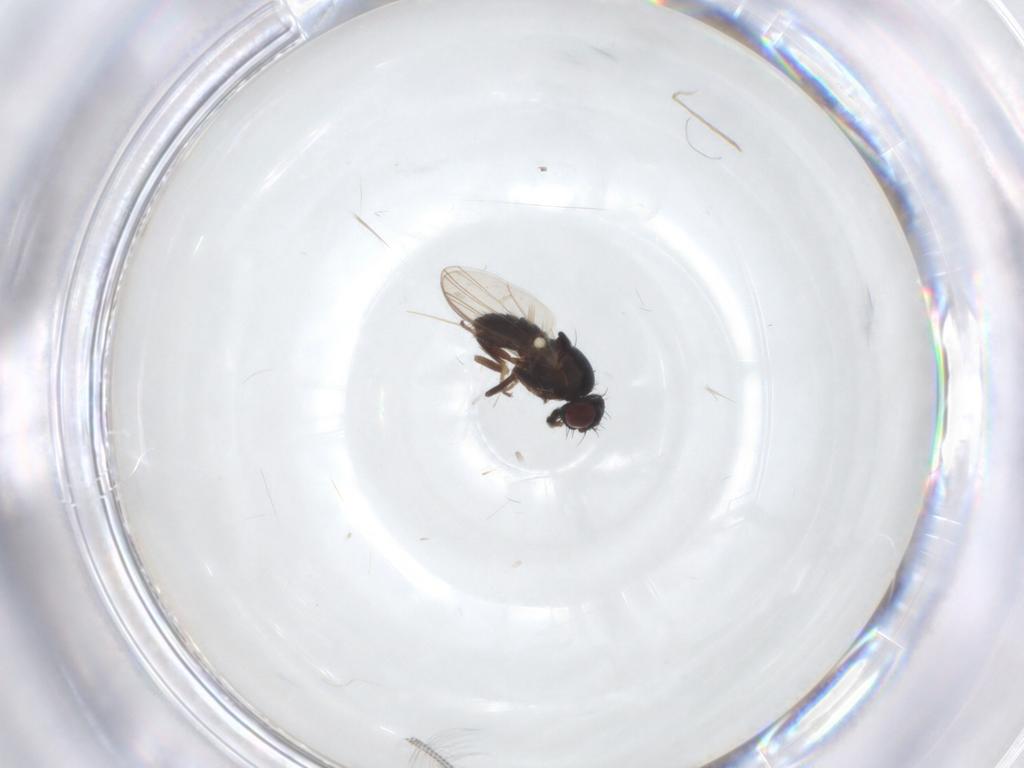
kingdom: Animalia
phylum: Arthropoda
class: Insecta
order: Diptera
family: Carnidae
